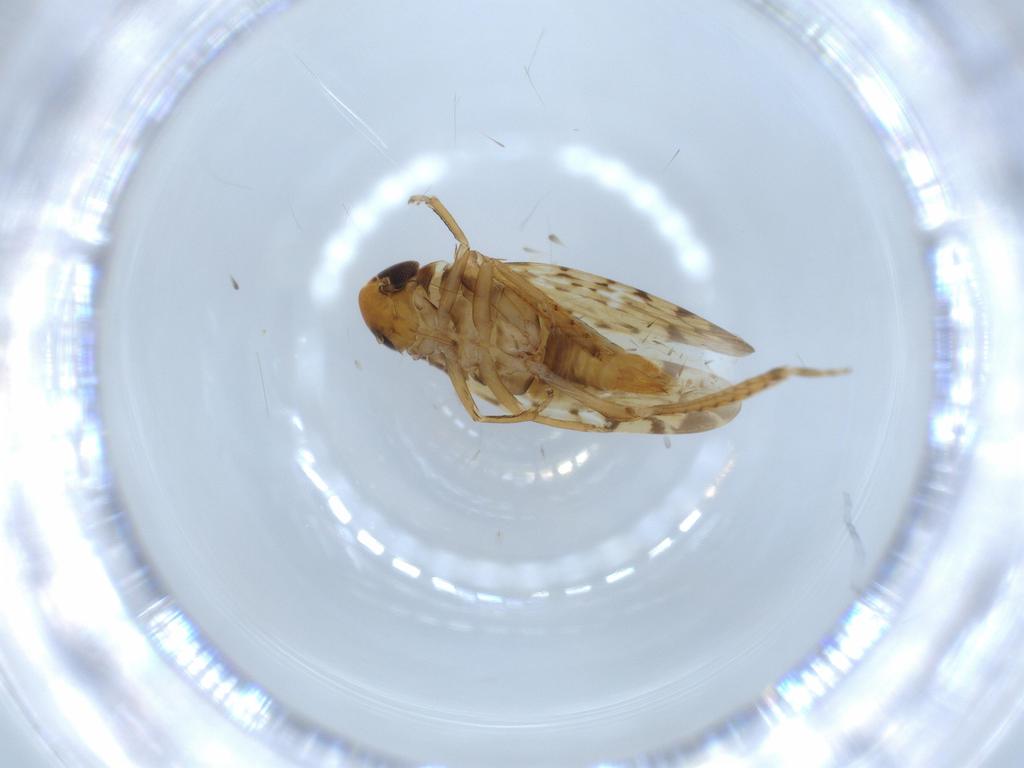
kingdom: Animalia
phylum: Arthropoda
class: Insecta
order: Hemiptera
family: Cicadellidae
